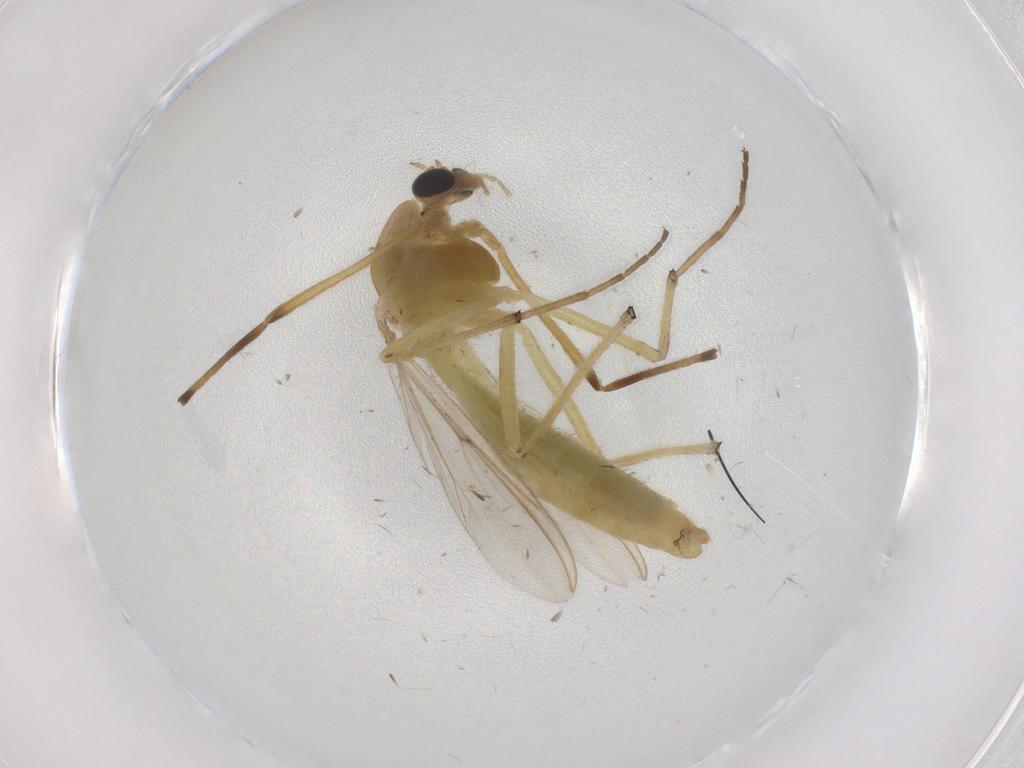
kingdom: Animalia
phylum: Arthropoda
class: Insecta
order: Diptera
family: Chironomidae
